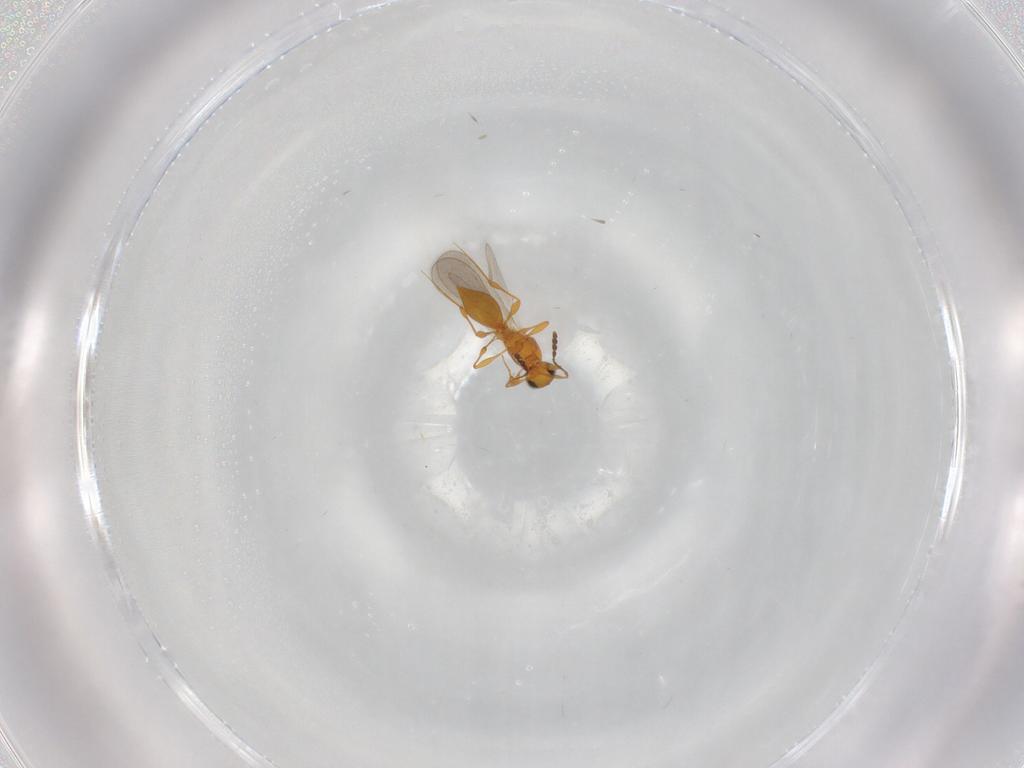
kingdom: Animalia
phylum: Arthropoda
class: Insecta
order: Hymenoptera
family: Platygastridae
